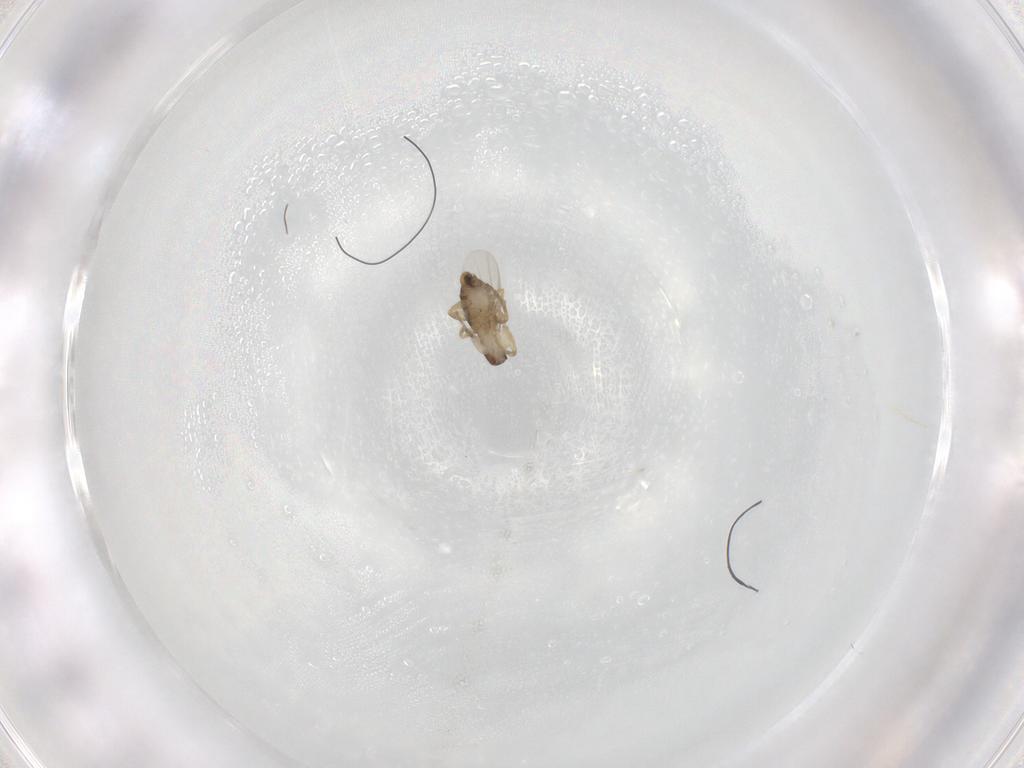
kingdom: Animalia
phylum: Arthropoda
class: Insecta
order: Diptera
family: Phoridae
